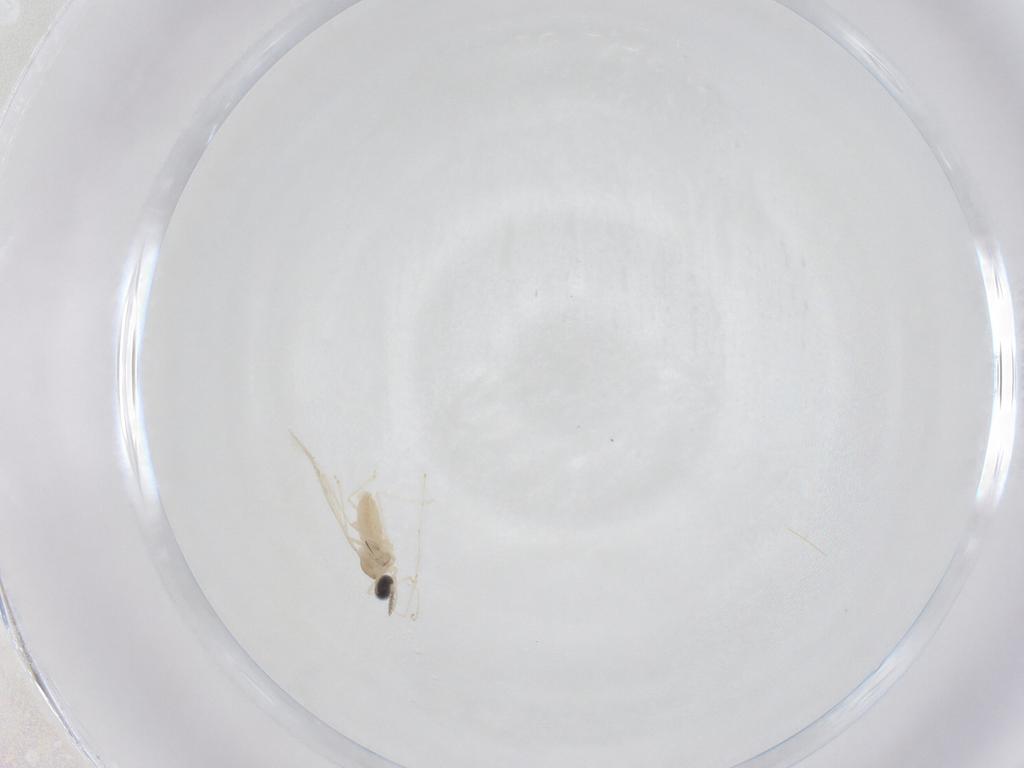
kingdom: Animalia
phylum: Arthropoda
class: Insecta
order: Diptera
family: Cecidomyiidae
